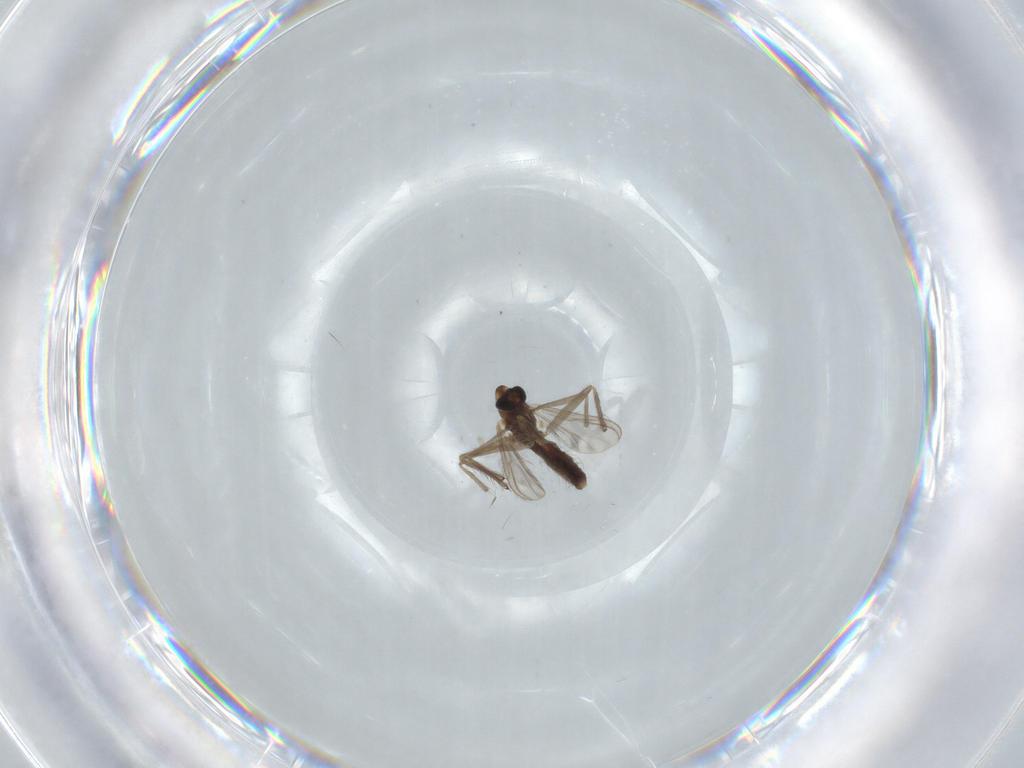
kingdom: Animalia
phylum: Arthropoda
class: Insecta
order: Diptera
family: Chironomidae
